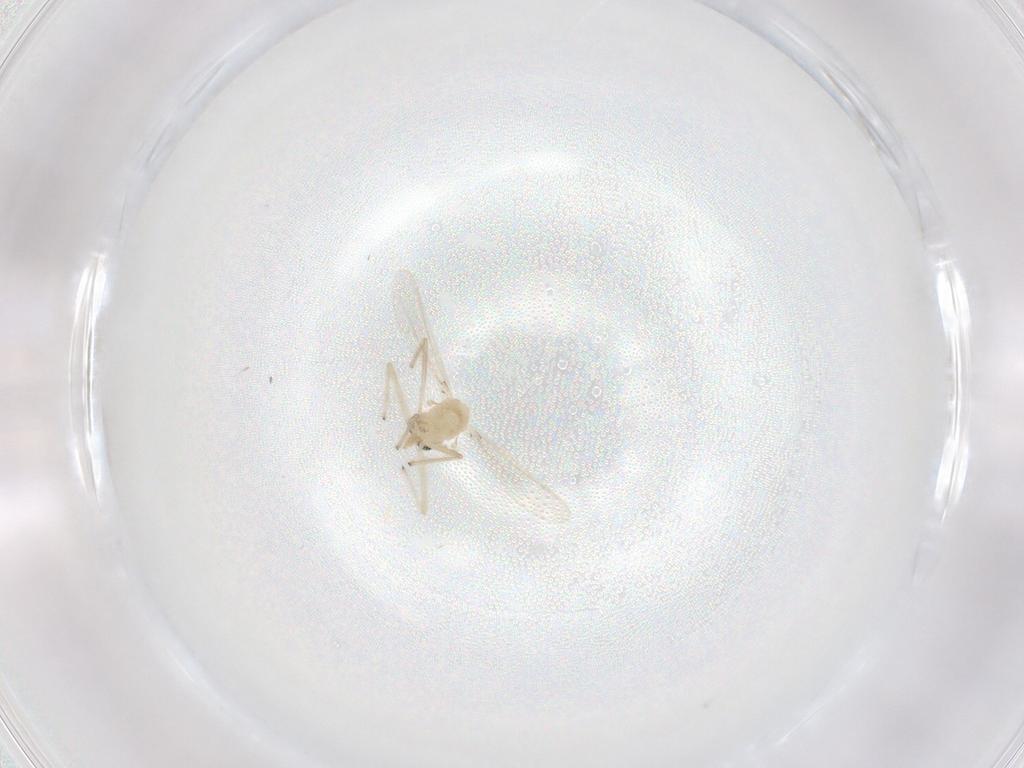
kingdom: Animalia
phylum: Arthropoda
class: Insecta
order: Diptera
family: Chironomidae
